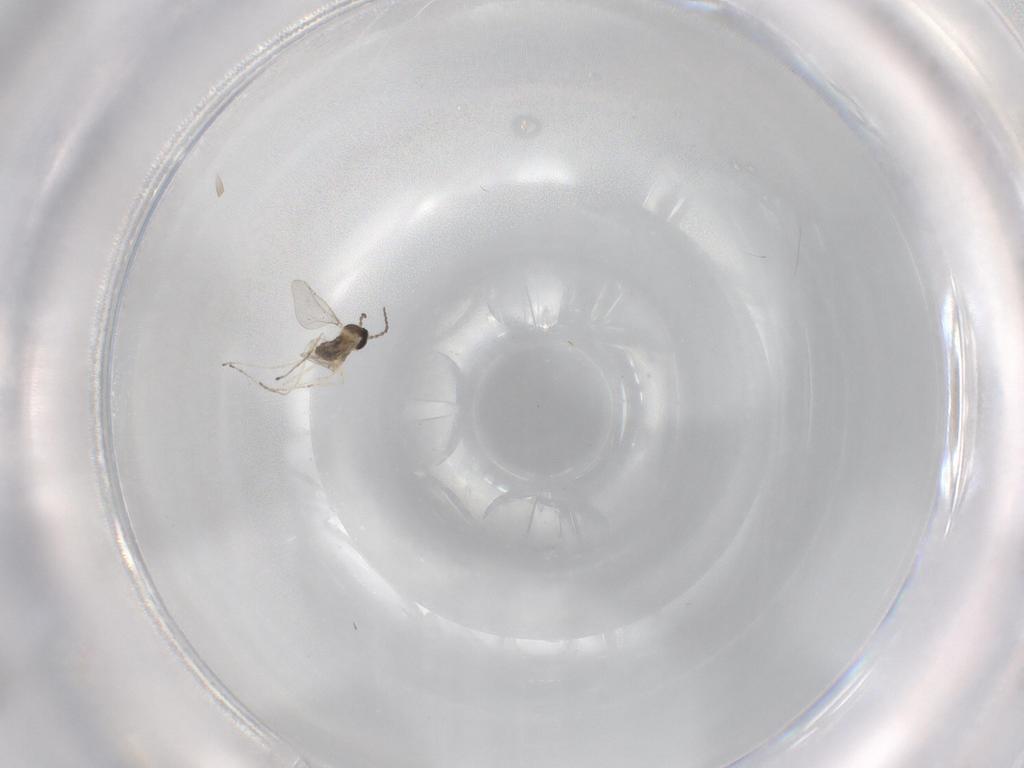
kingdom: Animalia
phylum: Arthropoda
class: Insecta
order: Diptera
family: Cecidomyiidae
